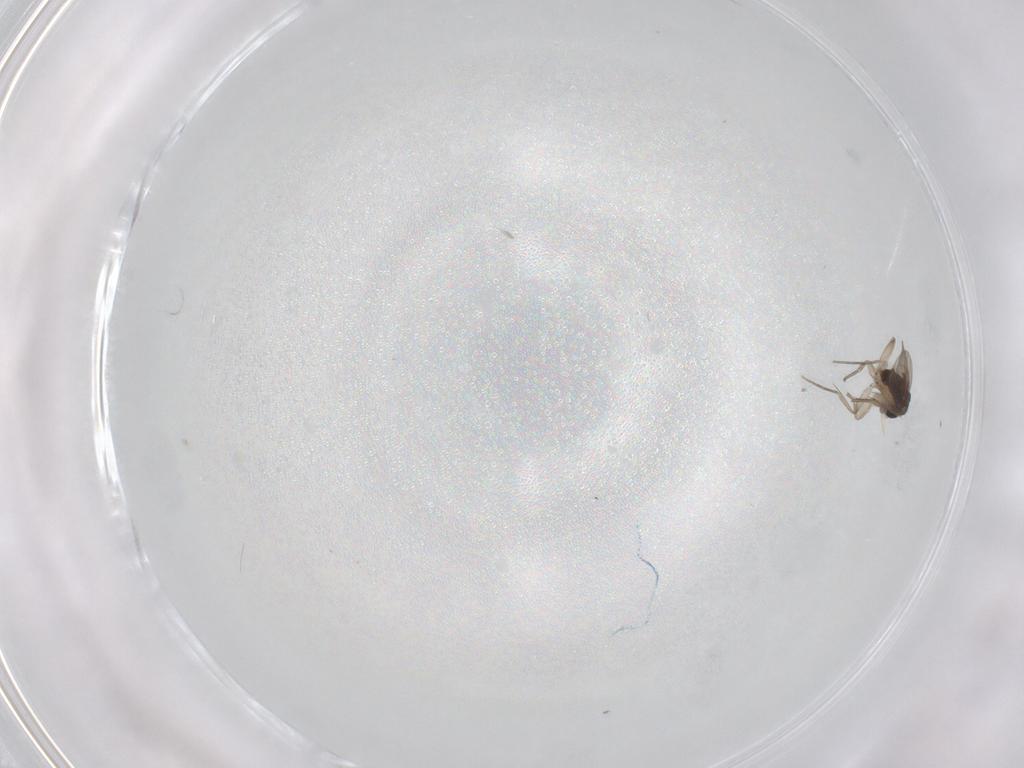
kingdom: Animalia
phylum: Arthropoda
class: Insecta
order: Diptera
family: Phoridae
